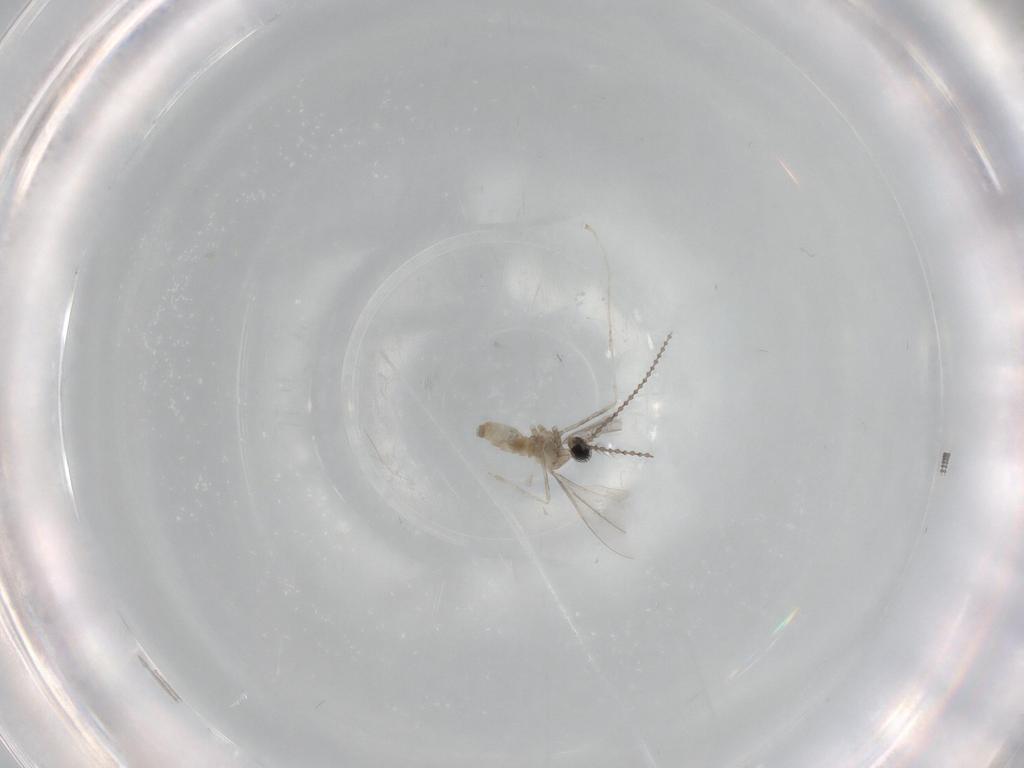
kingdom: Animalia
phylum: Arthropoda
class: Insecta
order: Diptera
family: Cecidomyiidae
